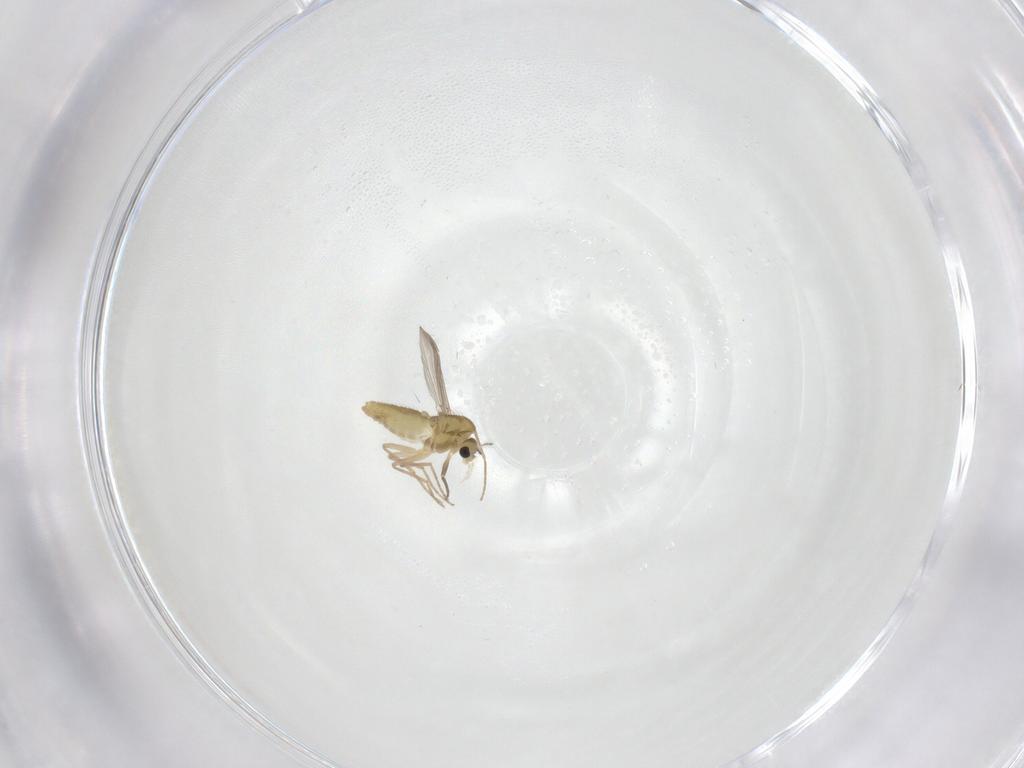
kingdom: Animalia
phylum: Arthropoda
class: Insecta
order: Diptera
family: Chironomidae
